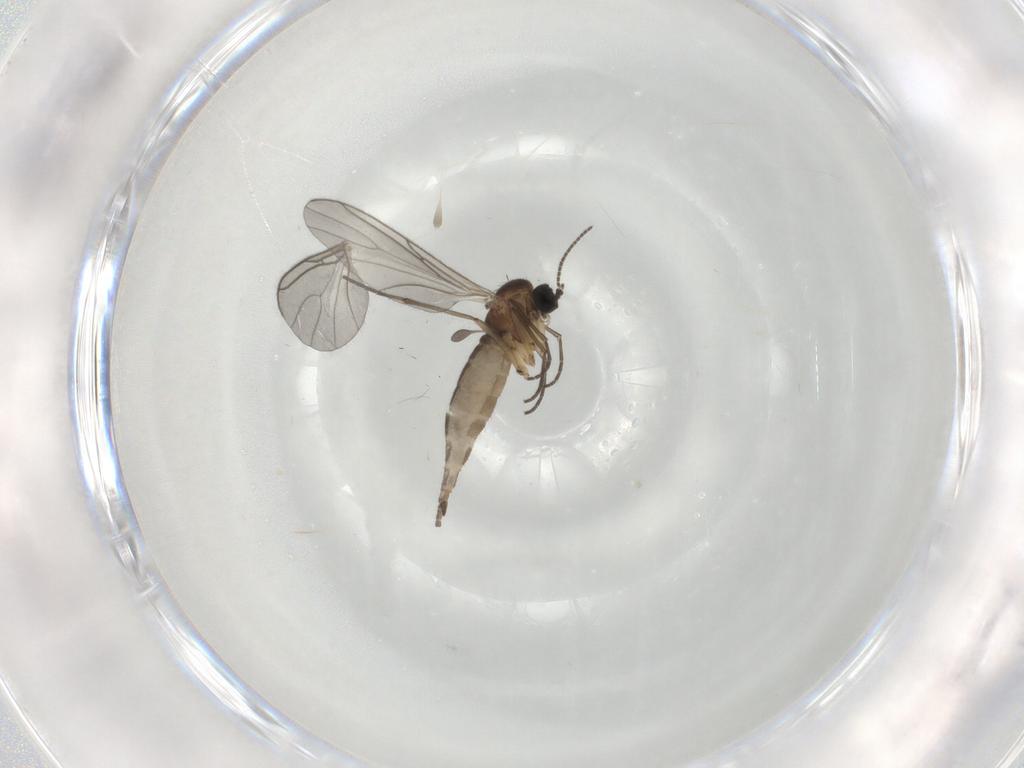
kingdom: Animalia
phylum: Arthropoda
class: Insecta
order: Diptera
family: Sciaridae
